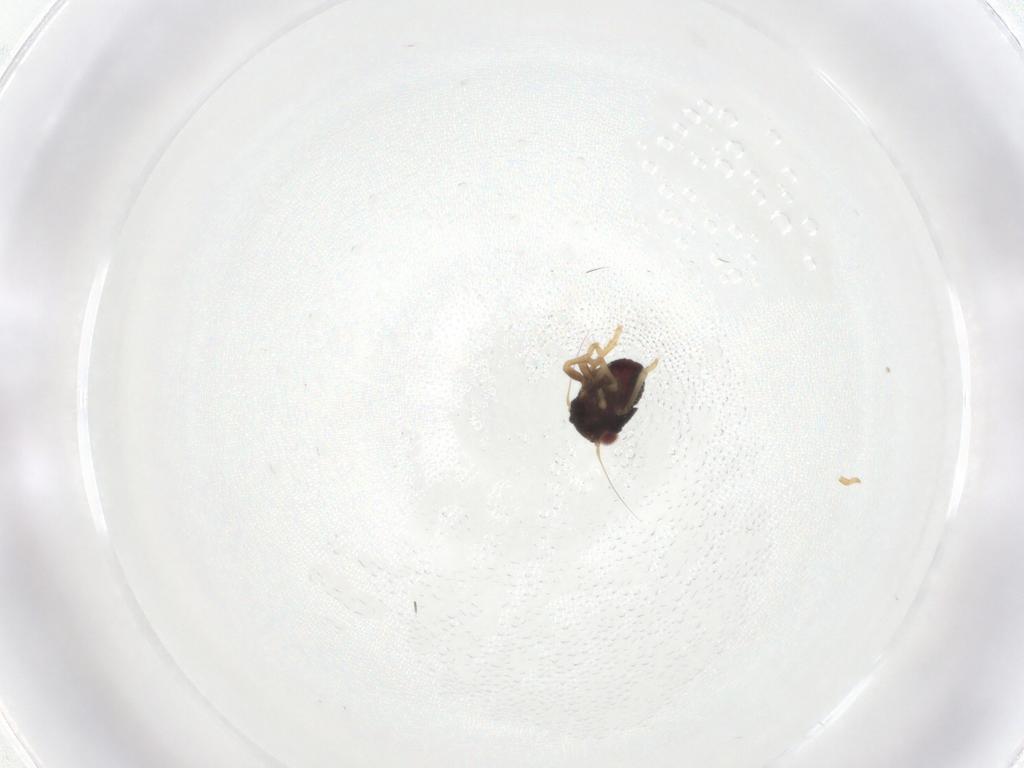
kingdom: Animalia
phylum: Arthropoda
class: Insecta
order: Hemiptera
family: Cicadellidae
